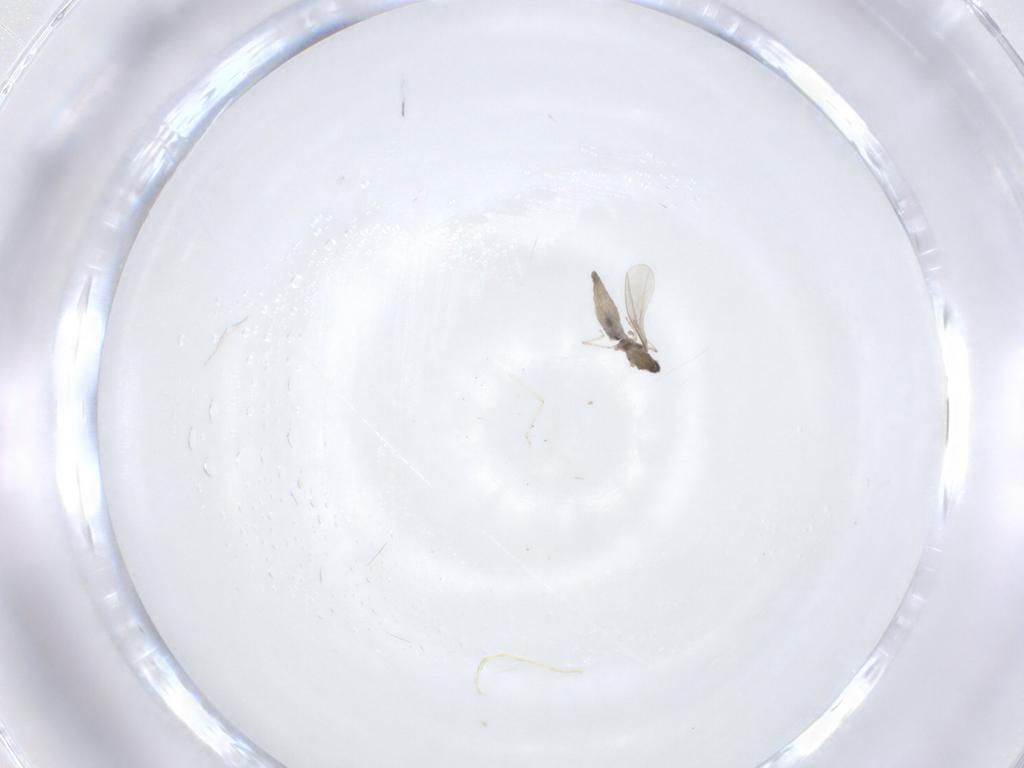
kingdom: Animalia
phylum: Arthropoda
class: Insecta
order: Diptera
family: Cecidomyiidae
